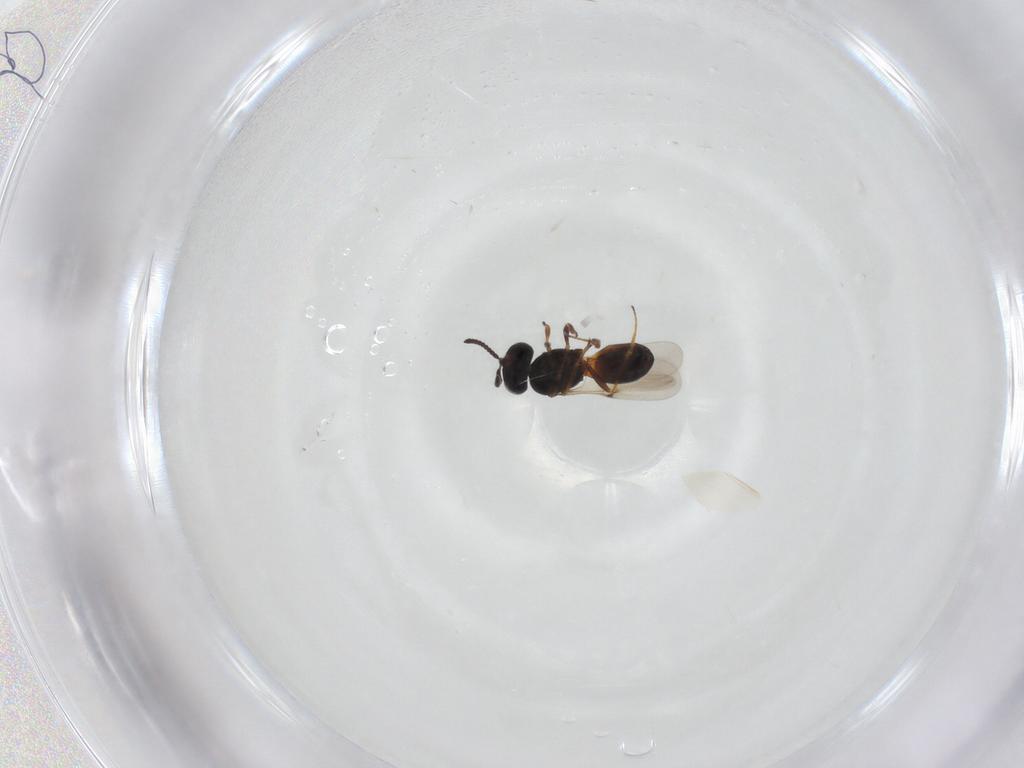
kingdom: Animalia
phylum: Arthropoda
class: Insecta
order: Hymenoptera
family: Scelionidae
